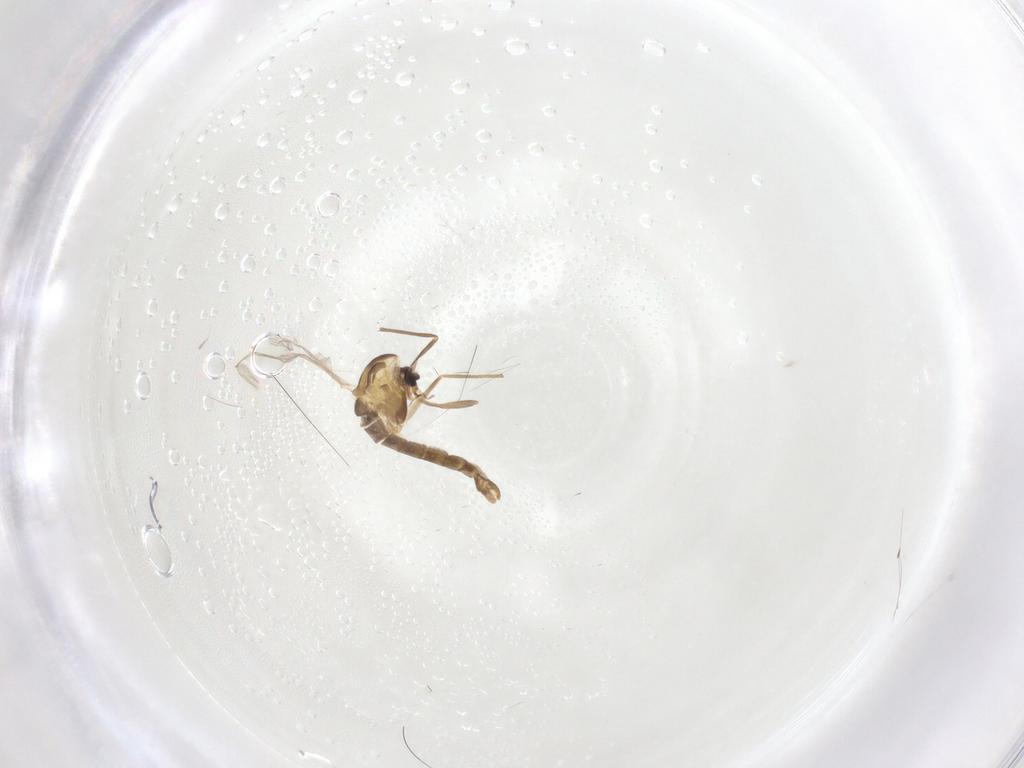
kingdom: Animalia
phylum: Arthropoda
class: Insecta
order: Diptera
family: Chironomidae
